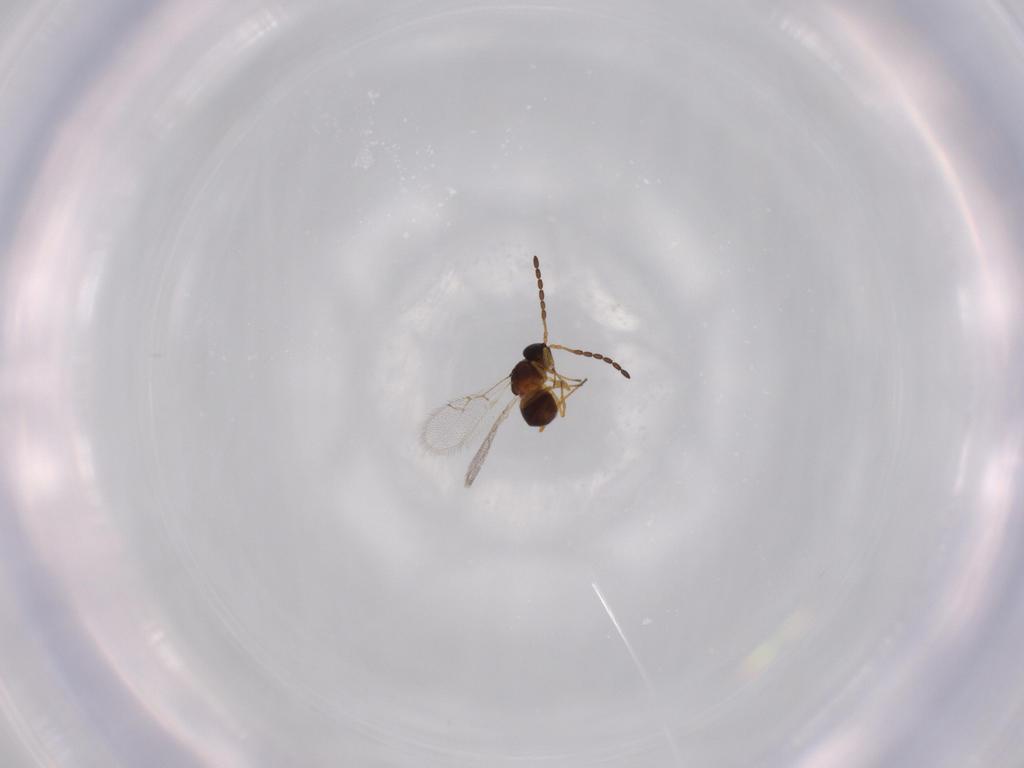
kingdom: Animalia
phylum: Arthropoda
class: Insecta
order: Hymenoptera
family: Figitidae
